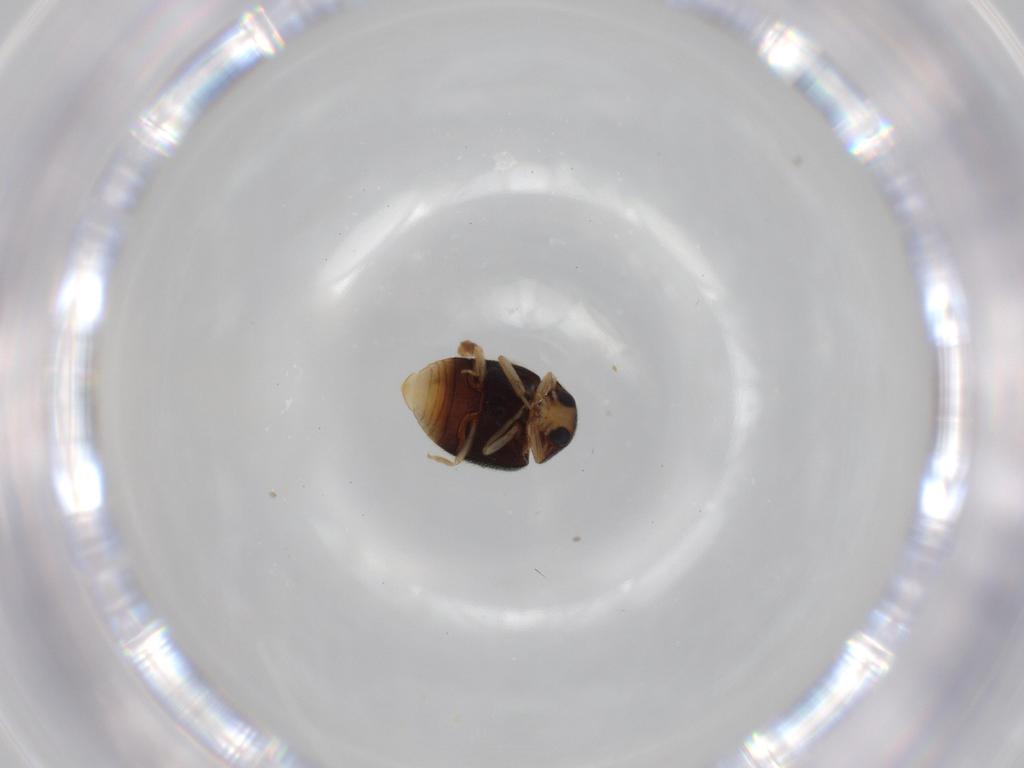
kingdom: Animalia
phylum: Arthropoda
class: Insecta
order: Coleoptera
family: Coccinellidae
